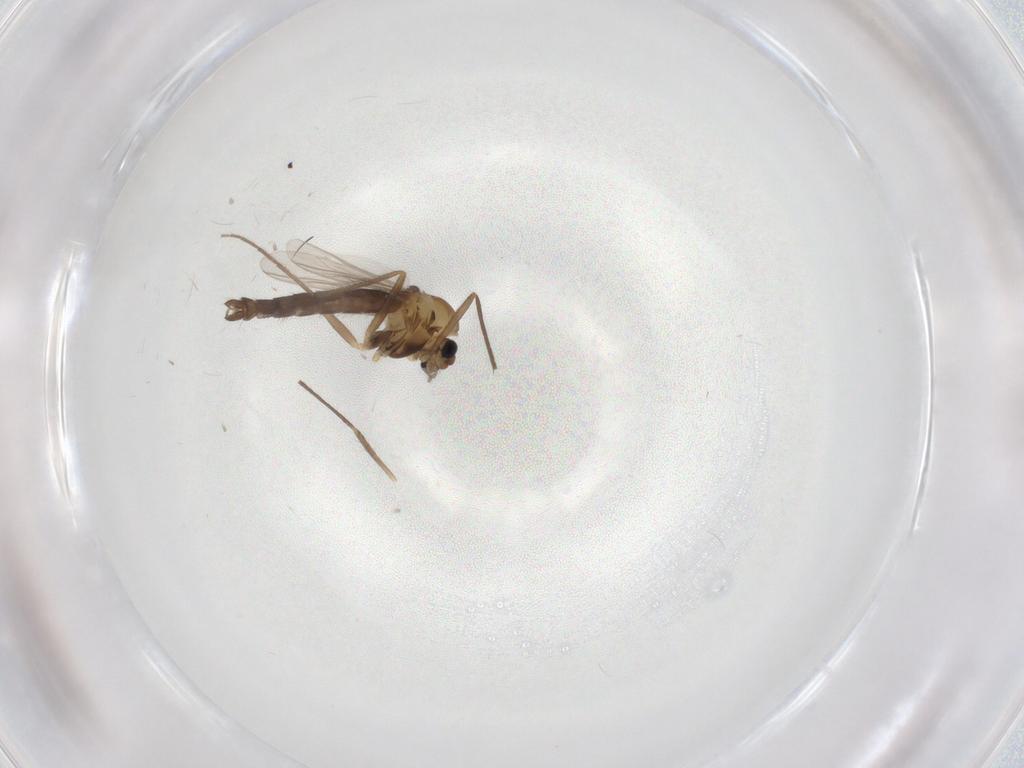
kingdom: Animalia
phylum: Arthropoda
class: Insecta
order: Diptera
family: Chironomidae
